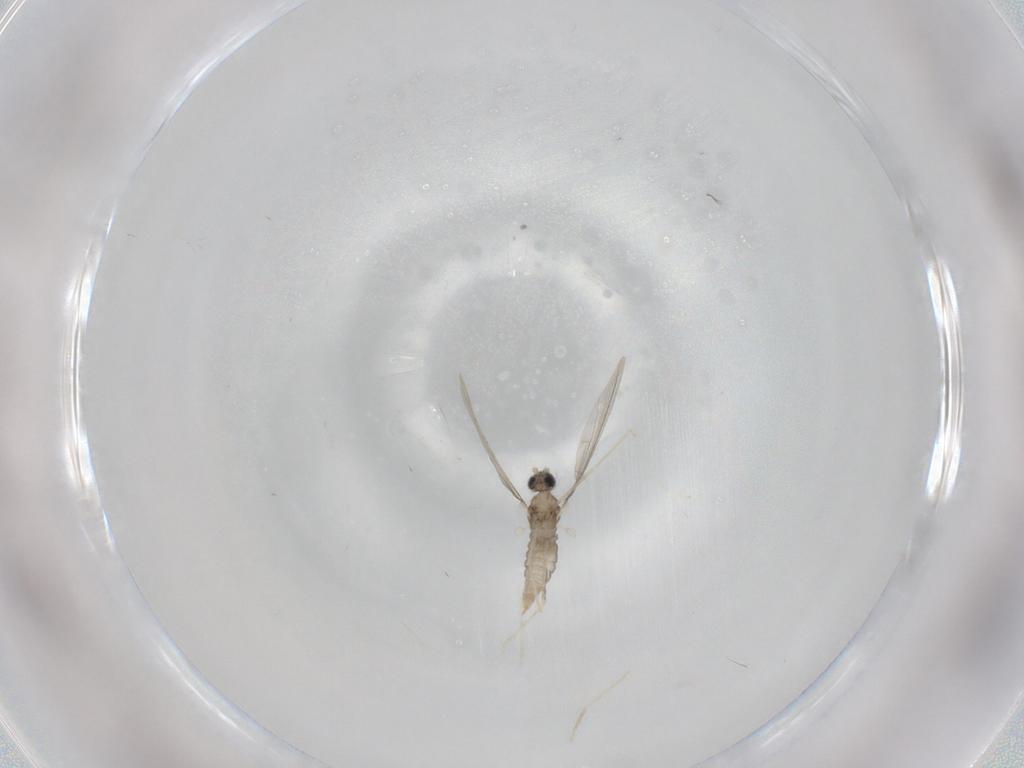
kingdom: Animalia
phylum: Arthropoda
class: Insecta
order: Diptera
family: Cecidomyiidae
